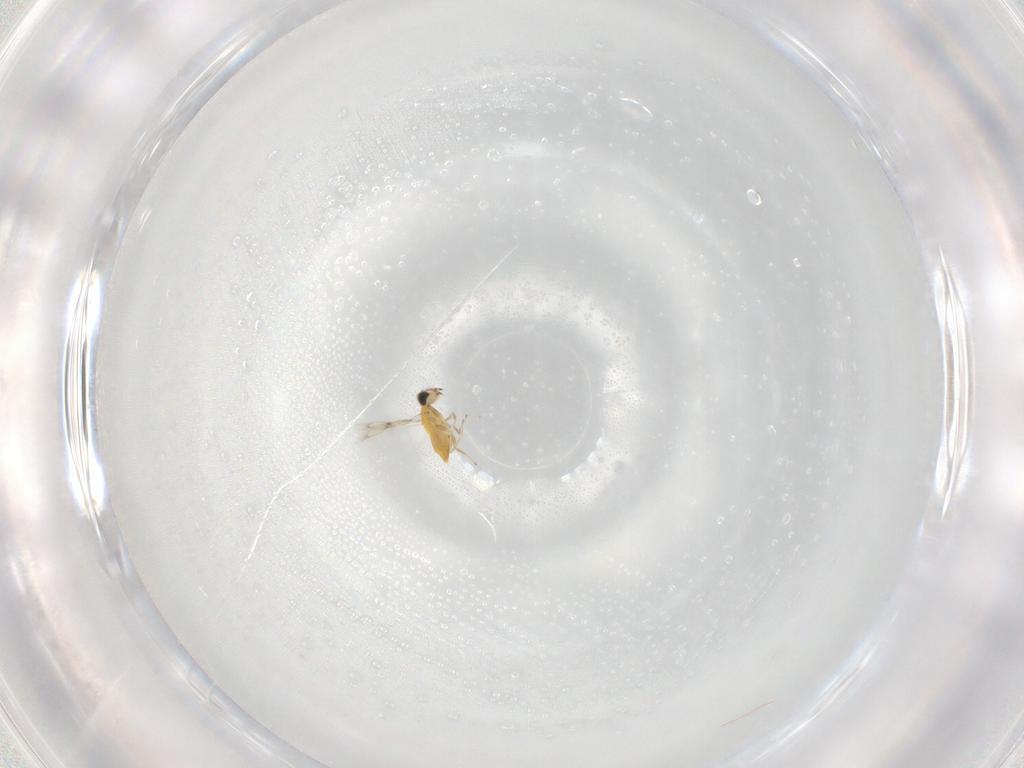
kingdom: Animalia
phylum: Arthropoda
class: Insecta
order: Hymenoptera
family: Trichogrammatidae
